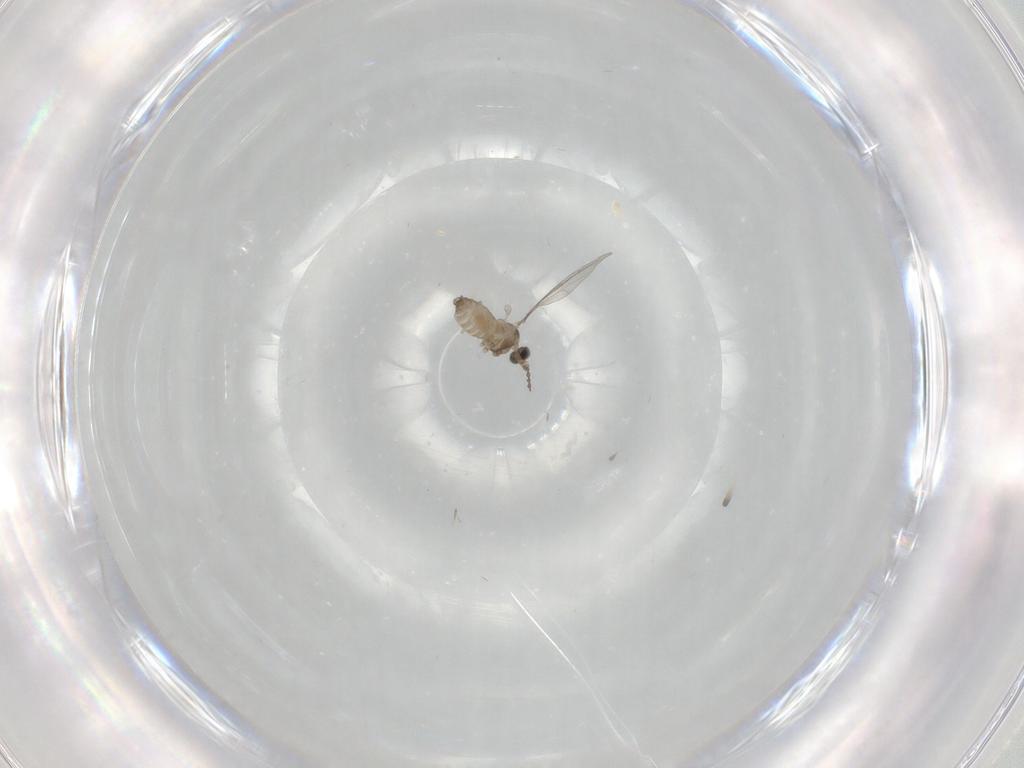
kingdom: Animalia
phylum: Arthropoda
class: Insecta
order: Diptera
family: Cecidomyiidae
